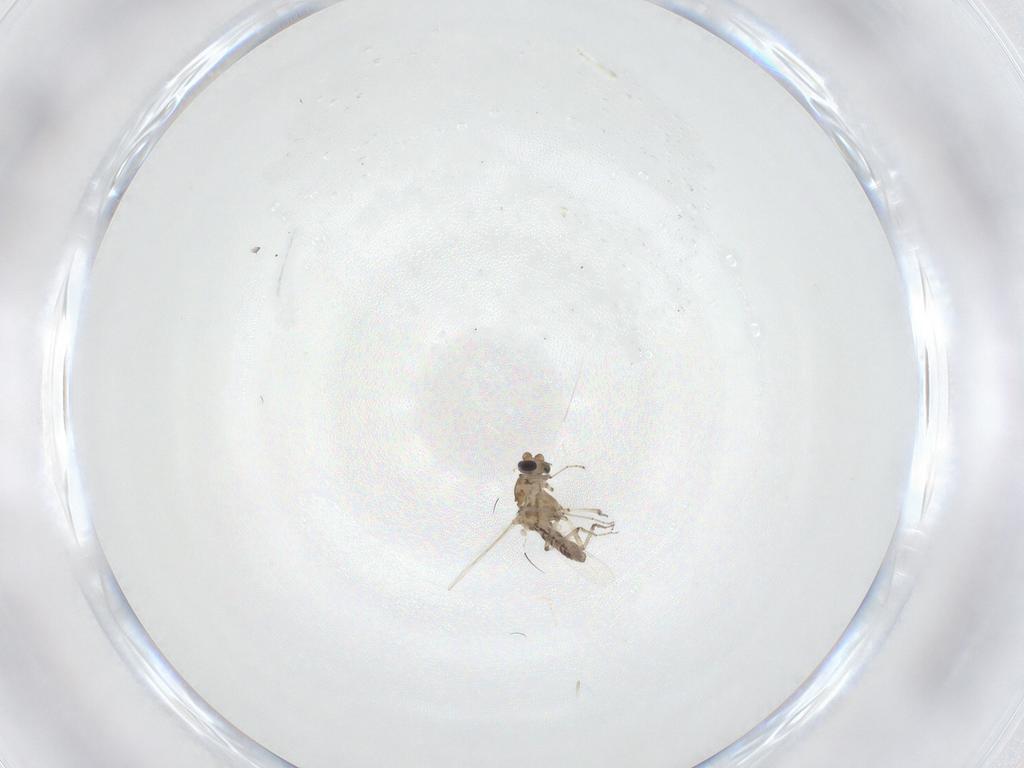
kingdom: Animalia
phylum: Arthropoda
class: Insecta
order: Diptera
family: Ceratopogonidae
